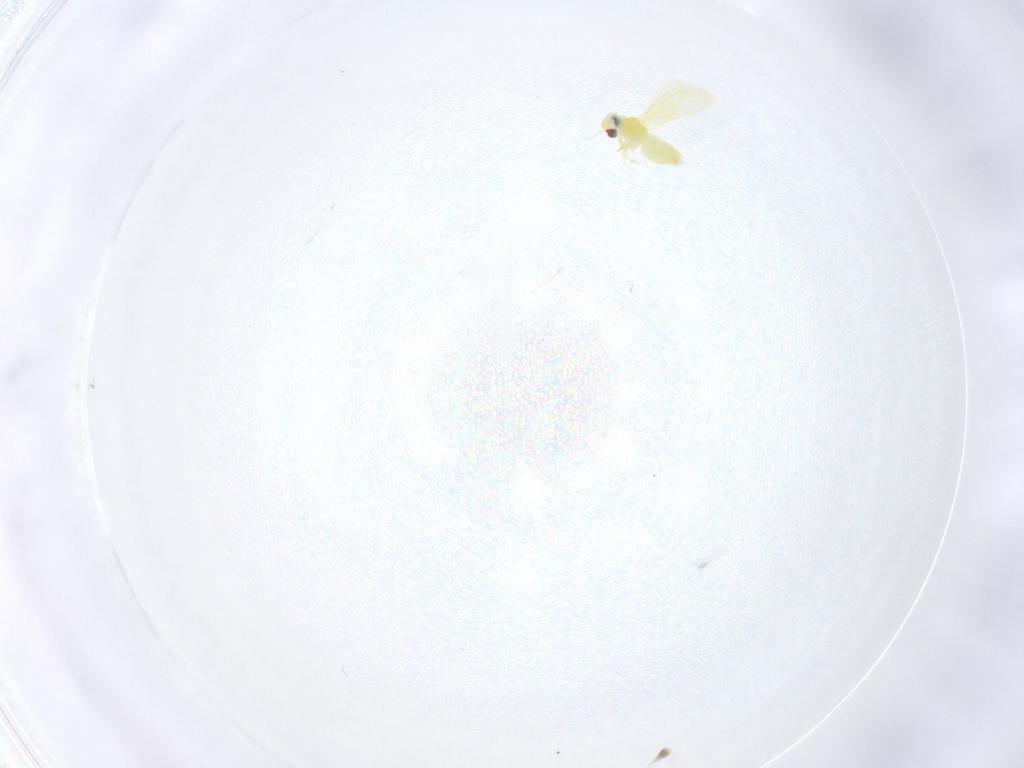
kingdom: Animalia
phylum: Arthropoda
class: Insecta
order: Hemiptera
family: Aleyrodidae
